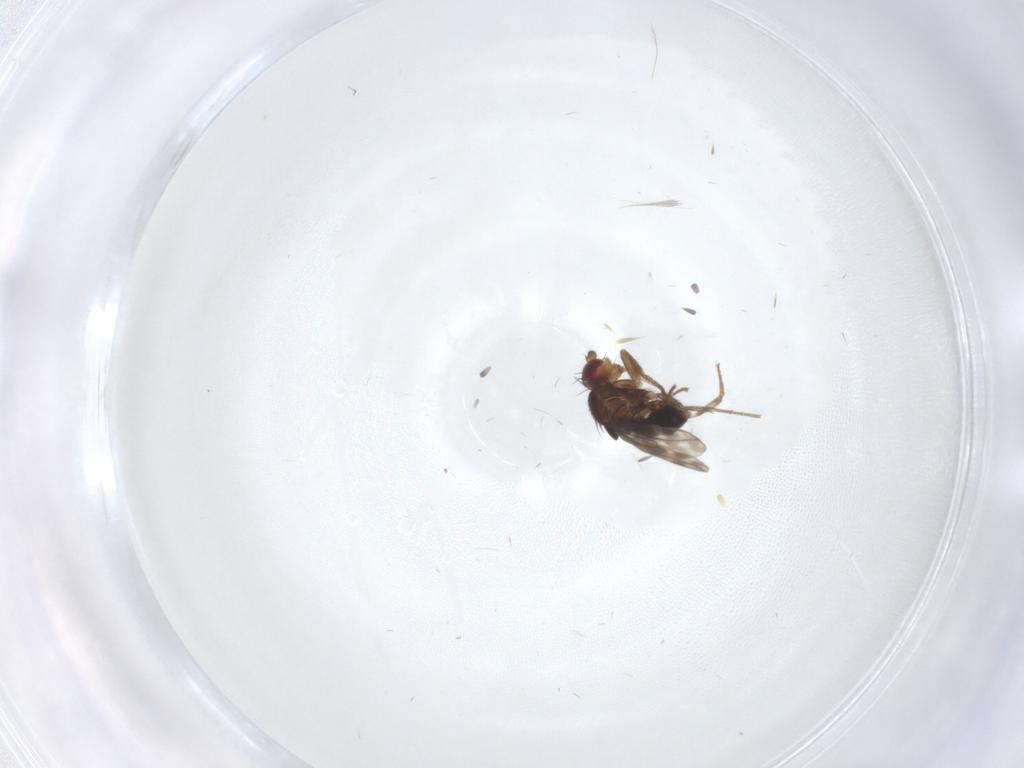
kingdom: Animalia
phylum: Arthropoda
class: Insecta
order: Diptera
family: Sphaeroceridae
